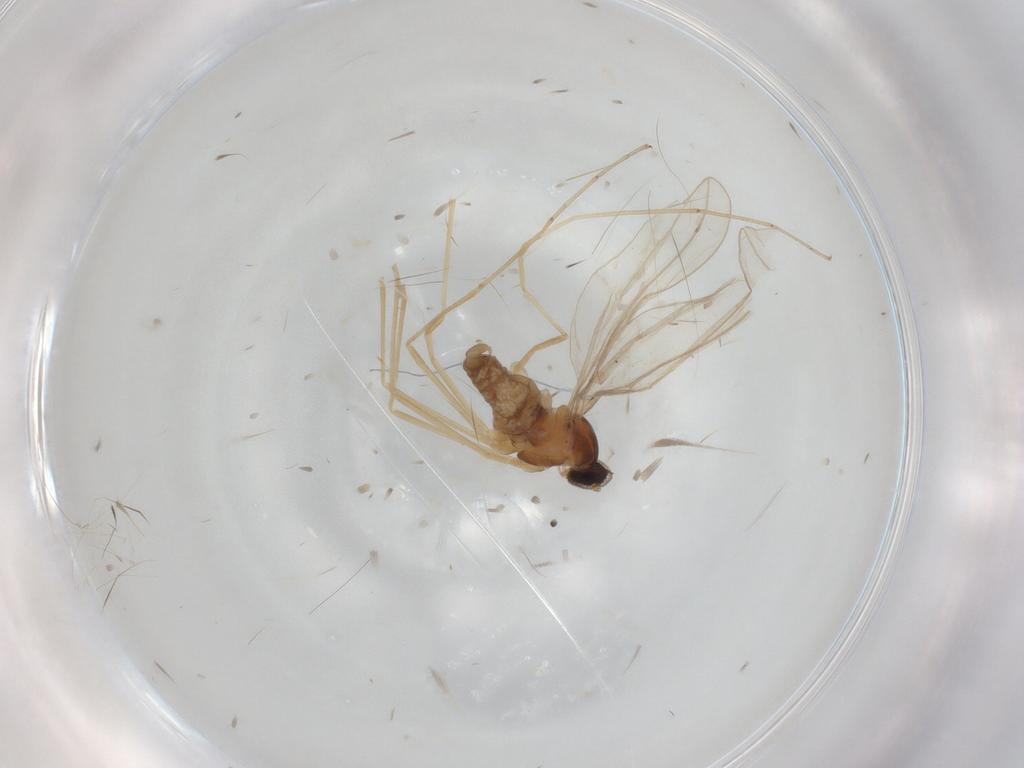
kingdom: Animalia
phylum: Arthropoda
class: Insecta
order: Diptera
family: Cecidomyiidae
